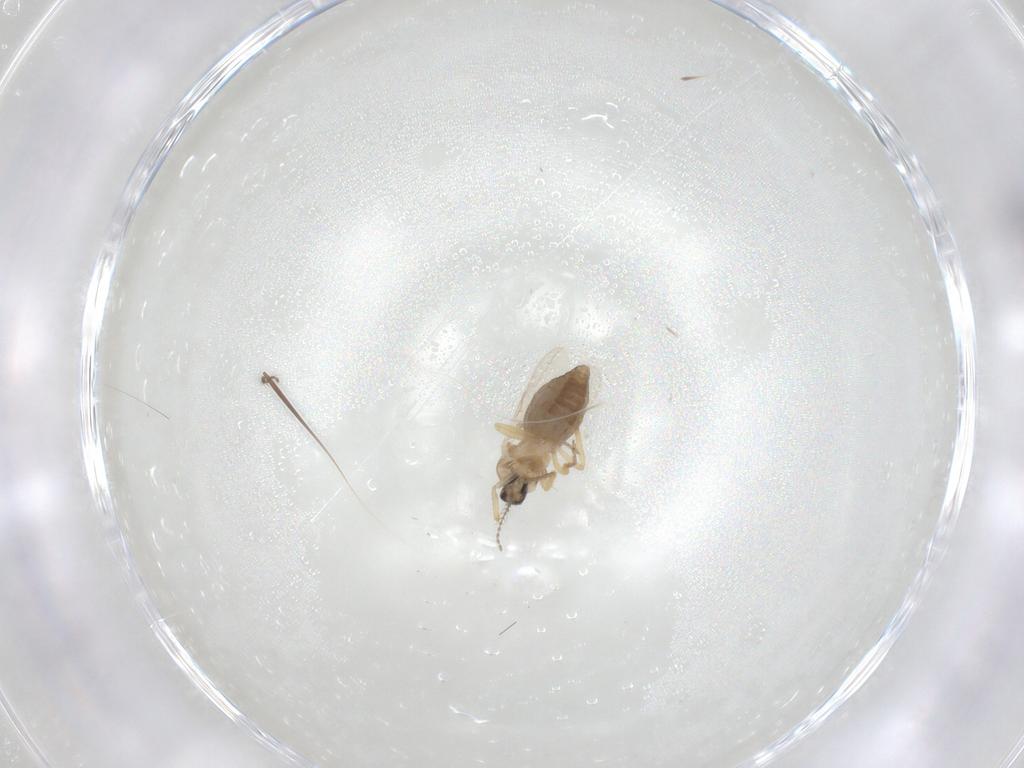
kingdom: Animalia
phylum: Arthropoda
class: Insecta
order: Diptera
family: Ceratopogonidae
